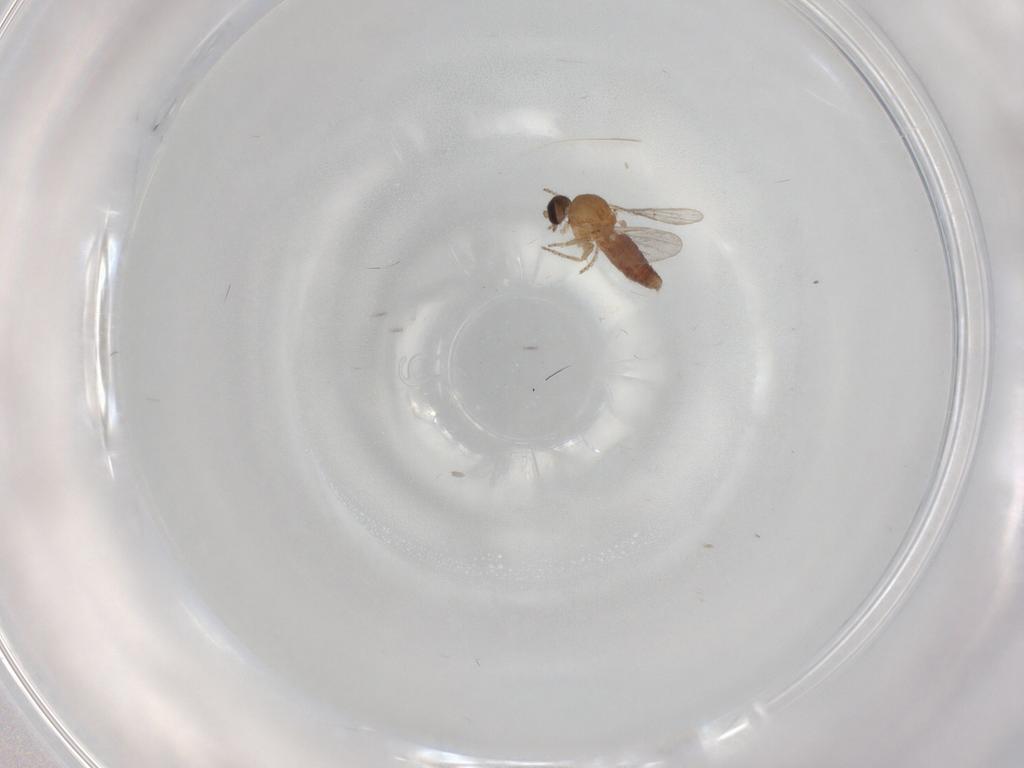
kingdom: Animalia
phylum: Arthropoda
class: Insecta
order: Diptera
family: Ceratopogonidae
